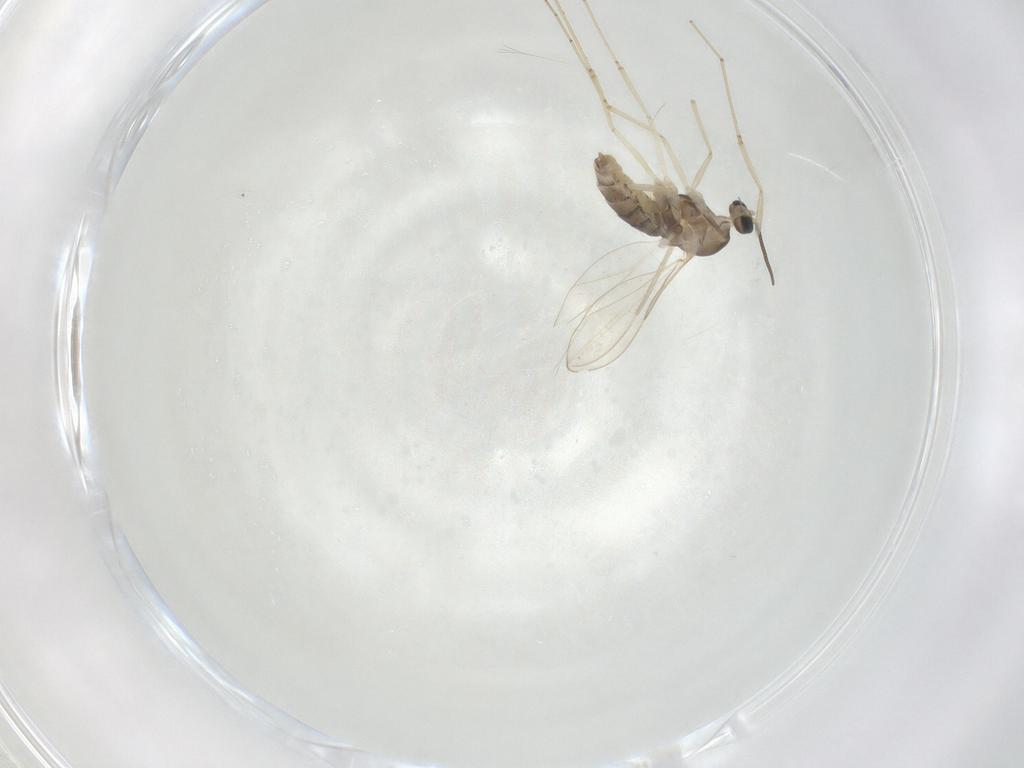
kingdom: Animalia
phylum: Arthropoda
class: Insecta
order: Diptera
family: Cecidomyiidae
